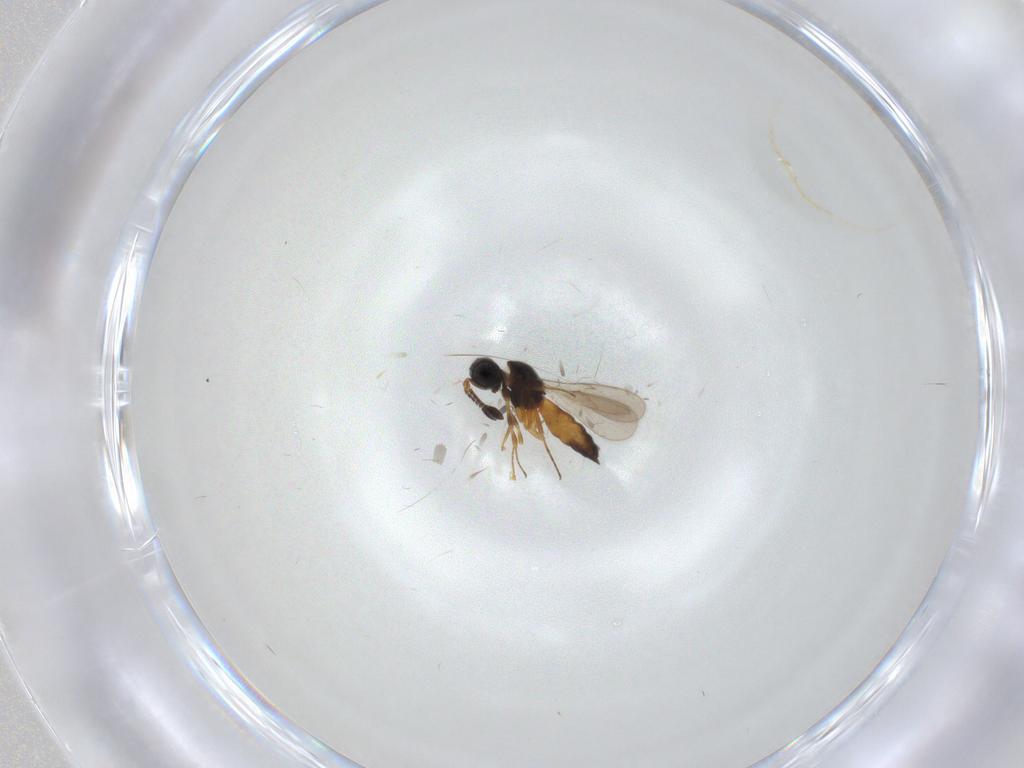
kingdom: Animalia
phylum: Arthropoda
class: Insecta
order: Hymenoptera
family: Scelionidae
